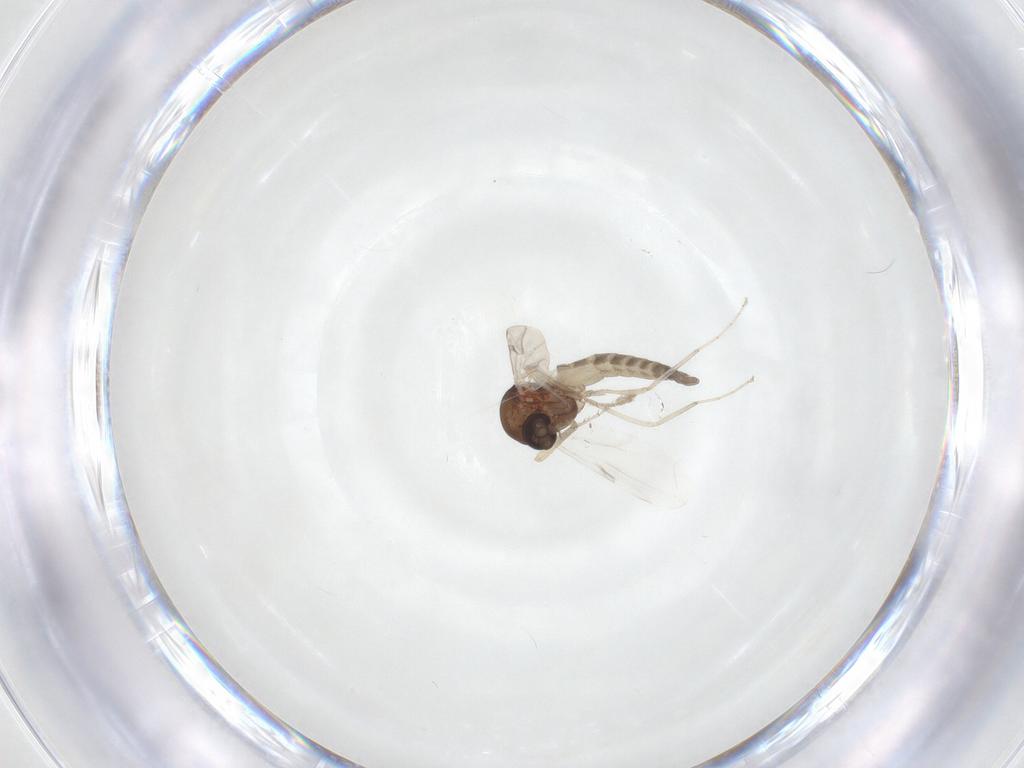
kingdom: Animalia
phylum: Arthropoda
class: Insecta
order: Diptera
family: Ceratopogonidae
